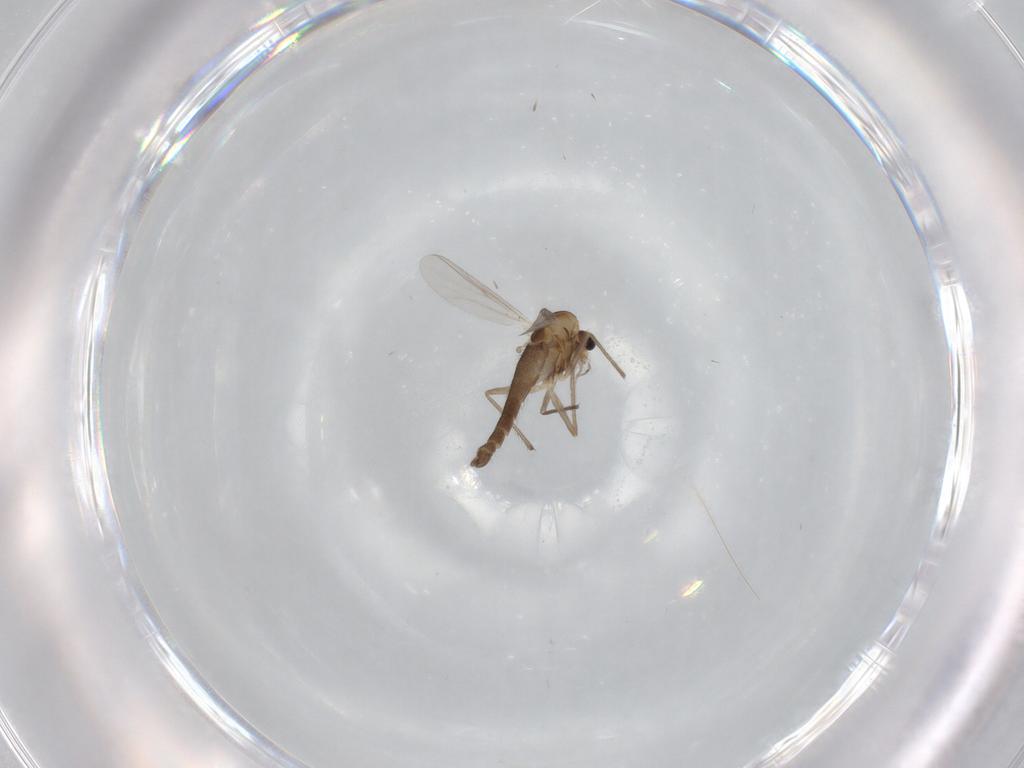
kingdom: Animalia
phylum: Arthropoda
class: Insecta
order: Diptera
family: Chironomidae
